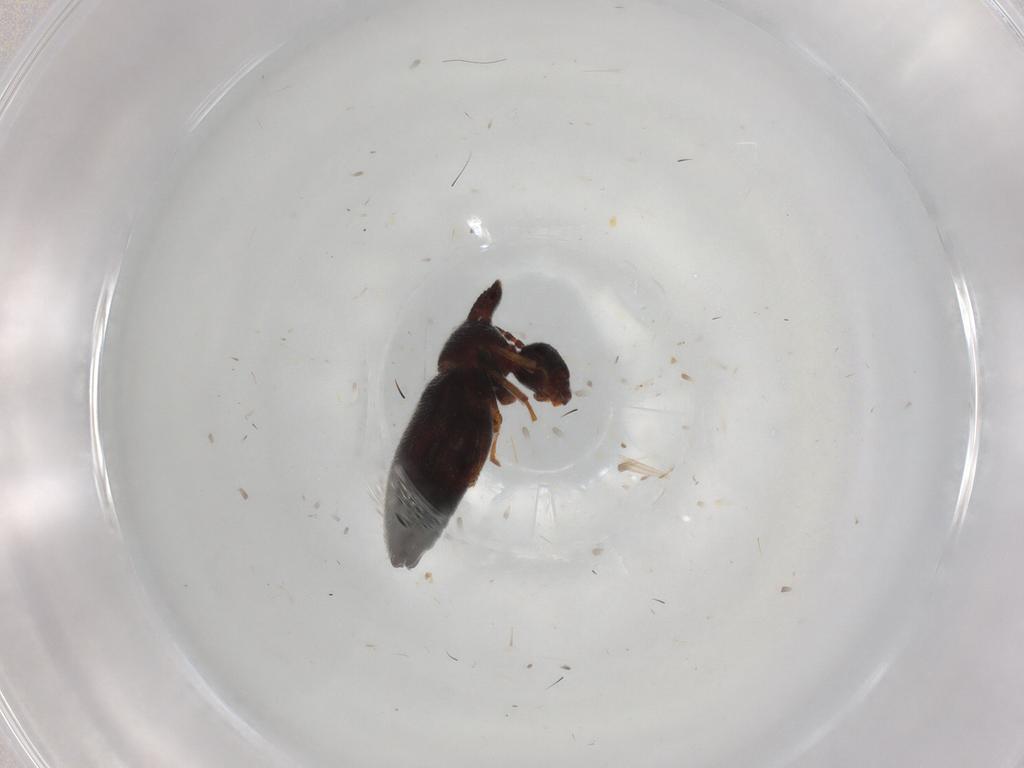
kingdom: Animalia
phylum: Arthropoda
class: Insecta
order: Coleoptera
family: Anthicidae
